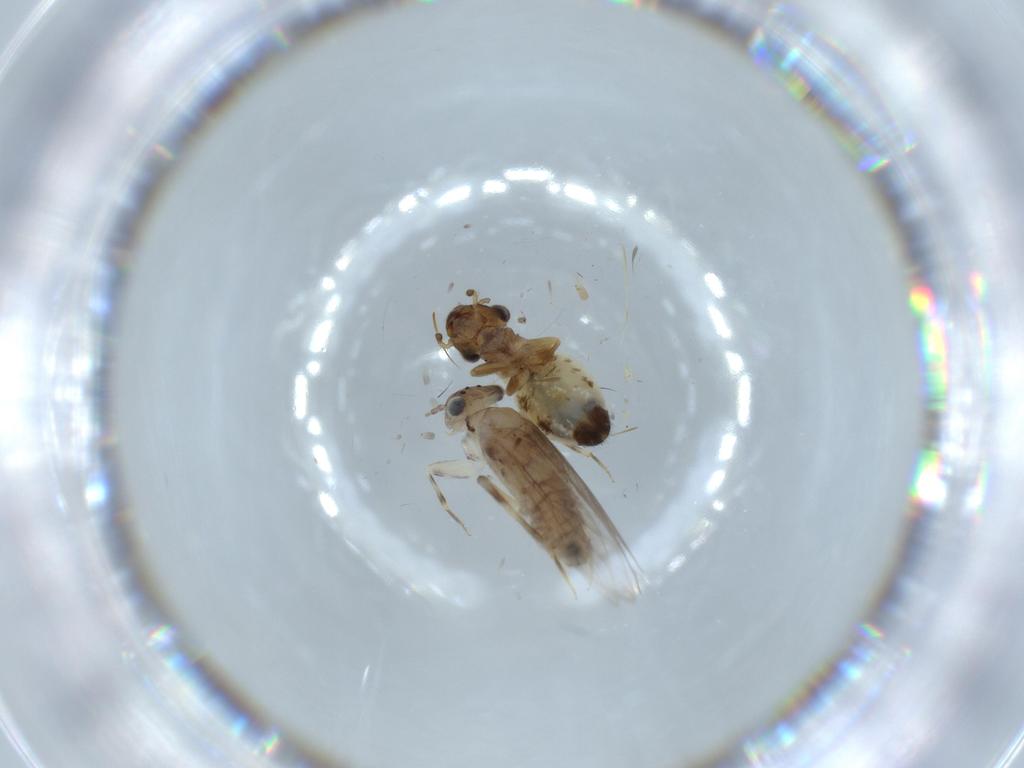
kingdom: Animalia
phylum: Arthropoda
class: Insecta
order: Psocodea
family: Lepidopsocidae
